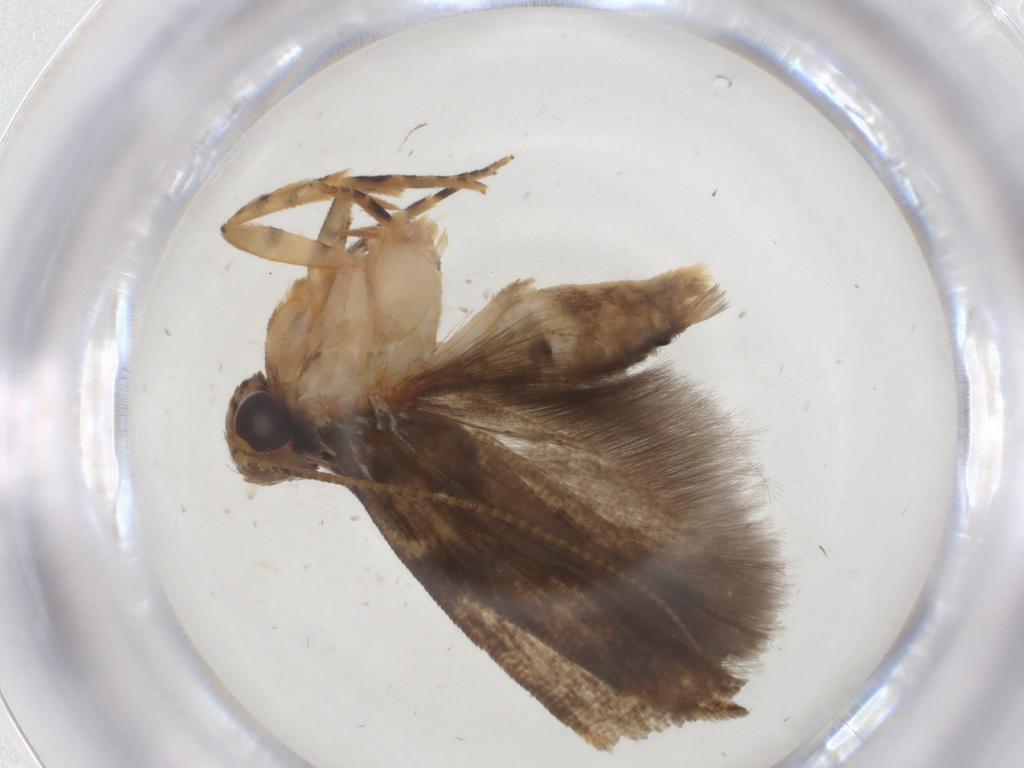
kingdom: Animalia
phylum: Arthropoda
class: Insecta
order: Lepidoptera
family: Gelechiidae
